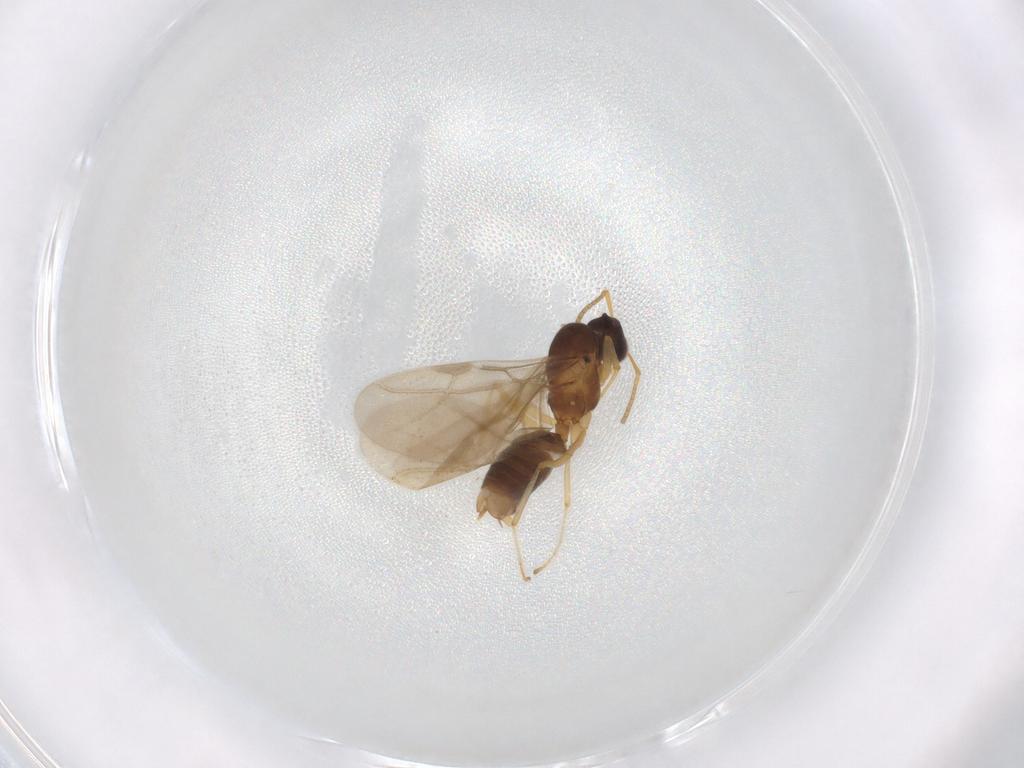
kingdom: Animalia
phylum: Arthropoda
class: Insecta
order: Hymenoptera
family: Formicidae
